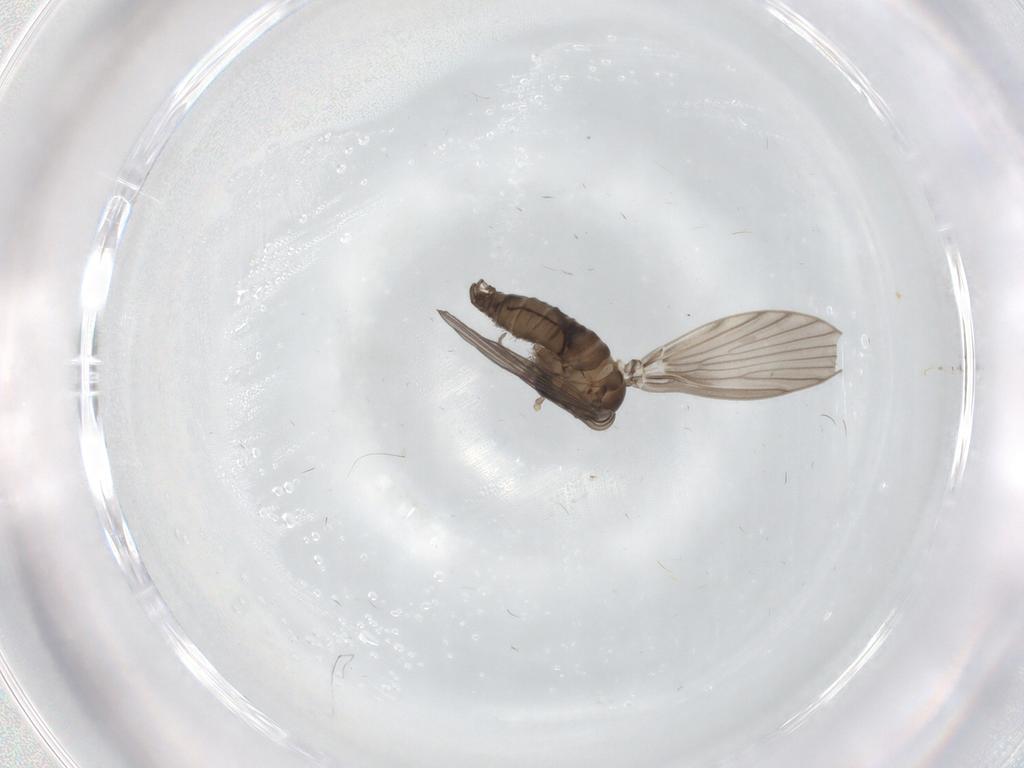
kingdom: Animalia
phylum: Arthropoda
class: Insecta
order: Diptera
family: Psychodidae
